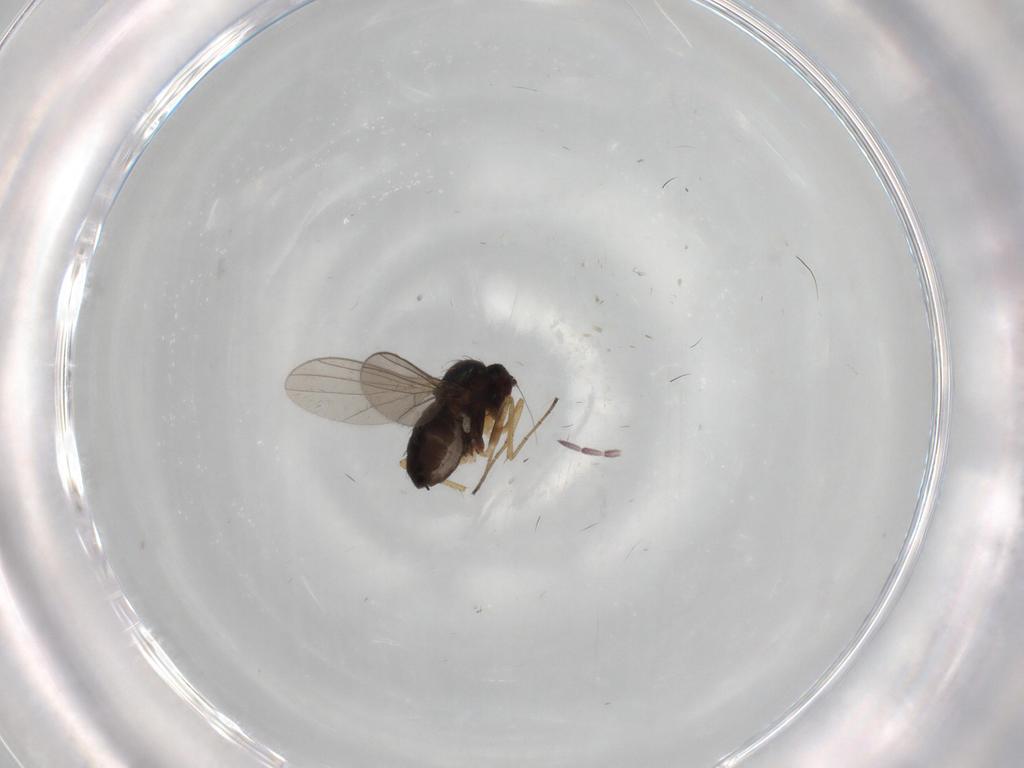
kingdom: Animalia
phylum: Arthropoda
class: Insecta
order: Diptera
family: Dolichopodidae
